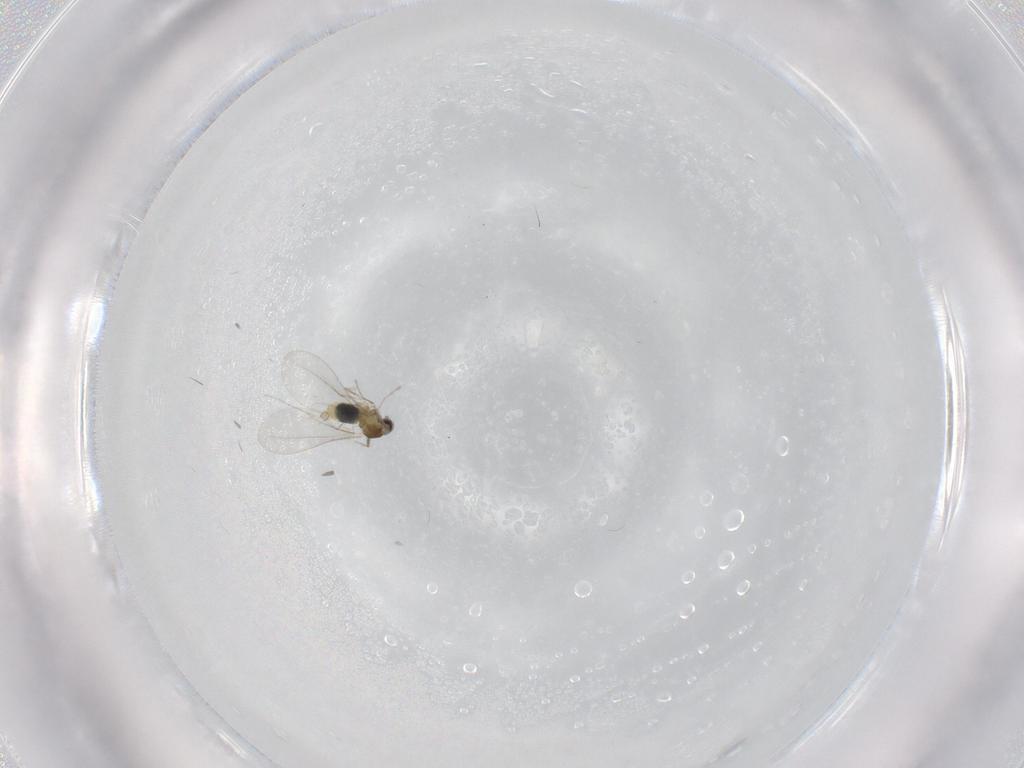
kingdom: Animalia
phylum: Arthropoda
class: Insecta
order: Diptera
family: Cecidomyiidae
